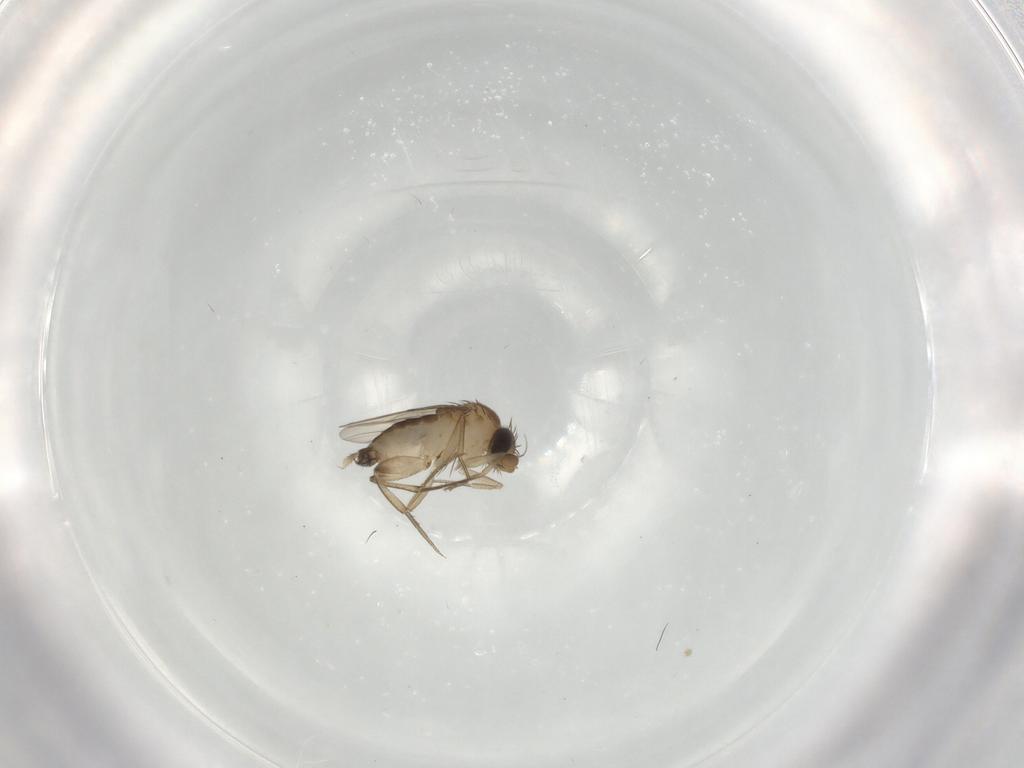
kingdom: Animalia
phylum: Arthropoda
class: Insecta
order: Diptera
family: Phoridae
